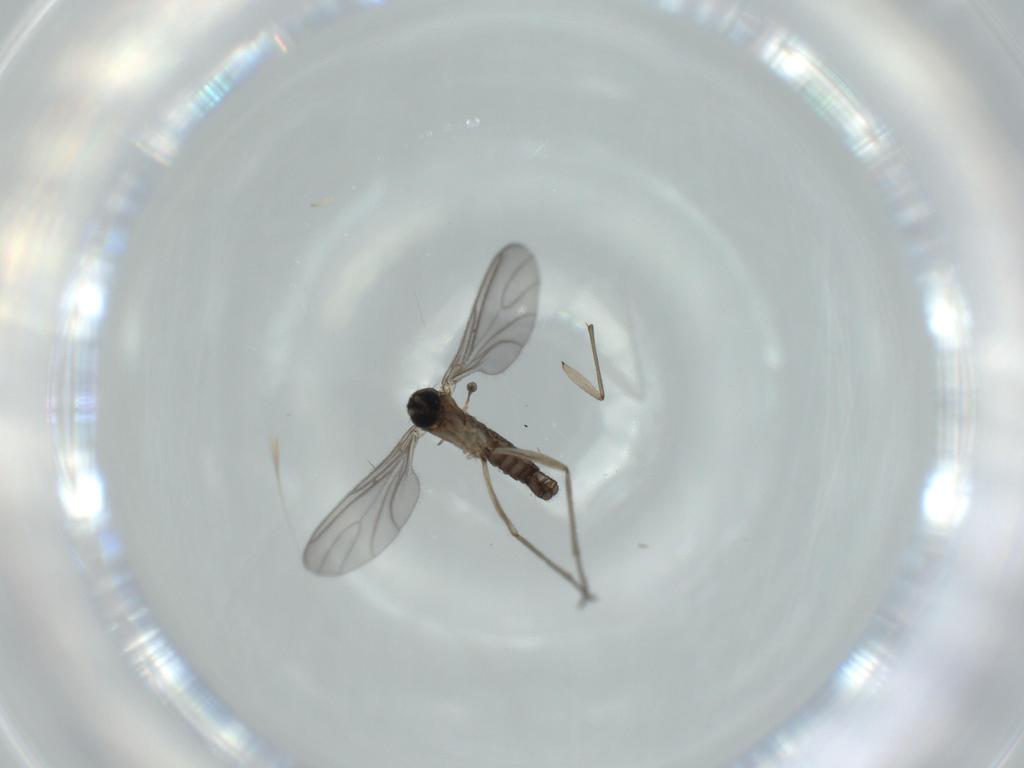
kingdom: Animalia
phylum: Arthropoda
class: Insecta
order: Diptera
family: Sciaridae
